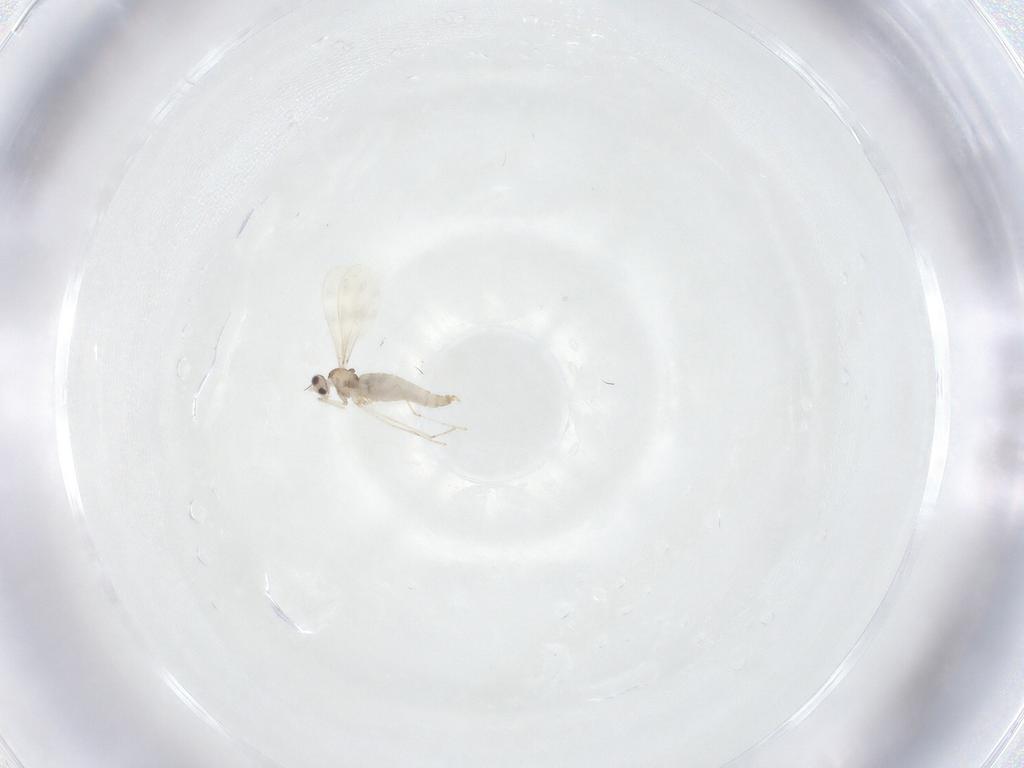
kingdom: Animalia
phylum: Arthropoda
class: Insecta
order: Diptera
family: Cecidomyiidae
